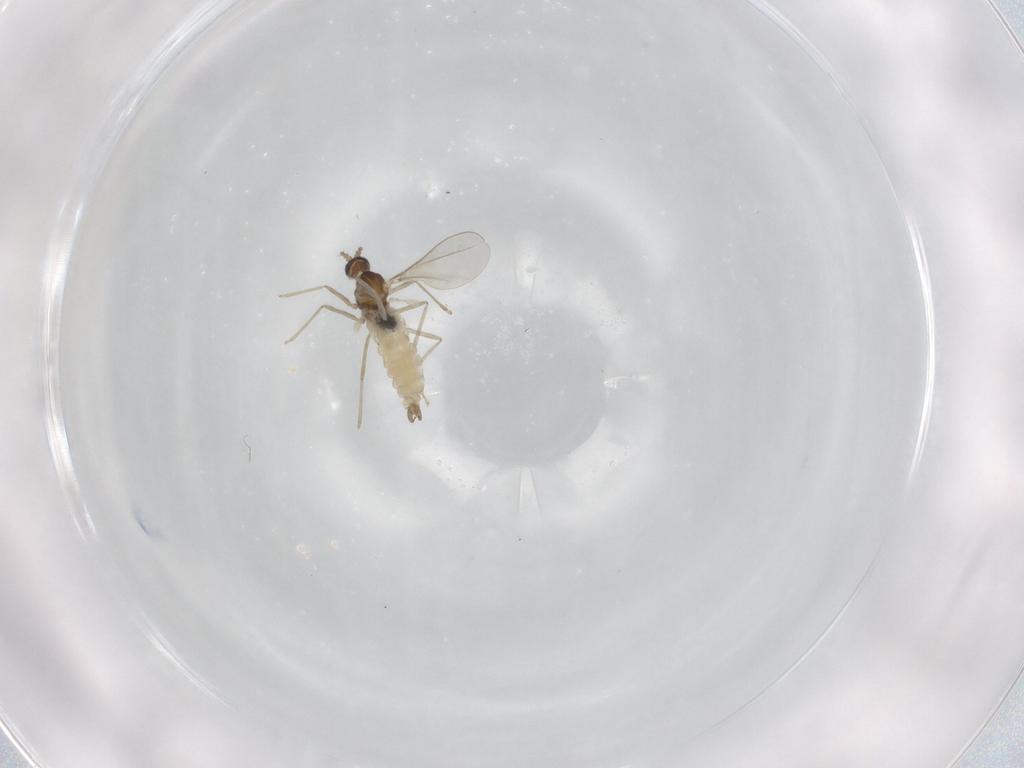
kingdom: Animalia
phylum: Arthropoda
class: Insecta
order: Diptera
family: Cecidomyiidae
